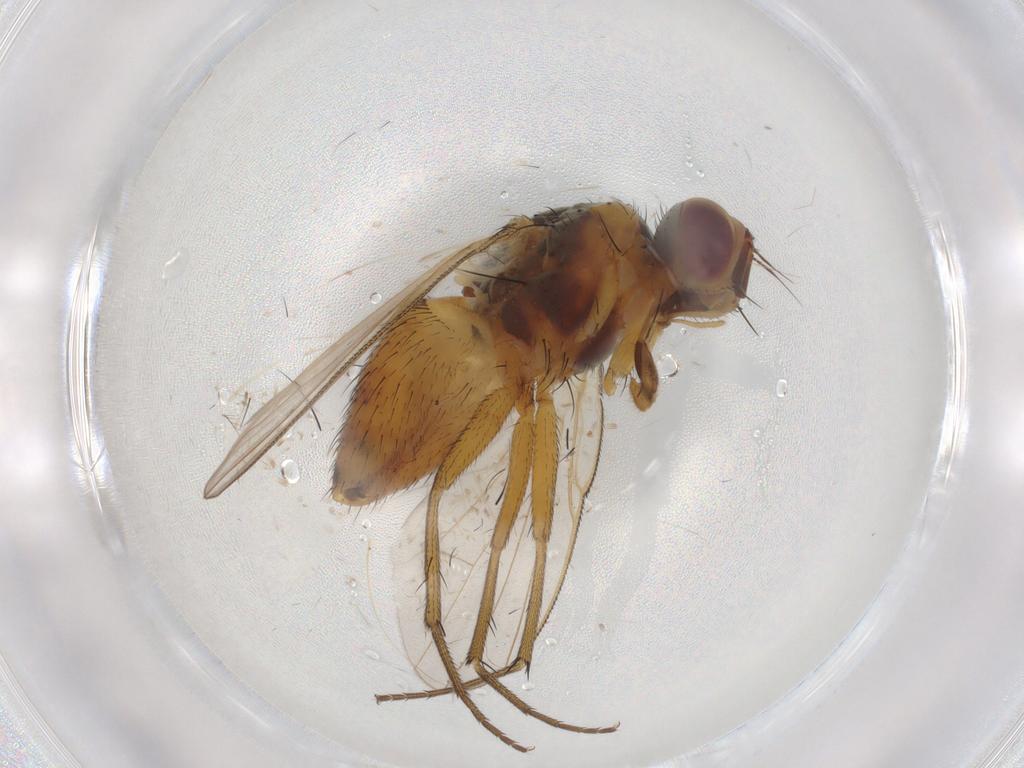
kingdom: Animalia
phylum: Arthropoda
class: Insecta
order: Diptera
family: Muscidae
